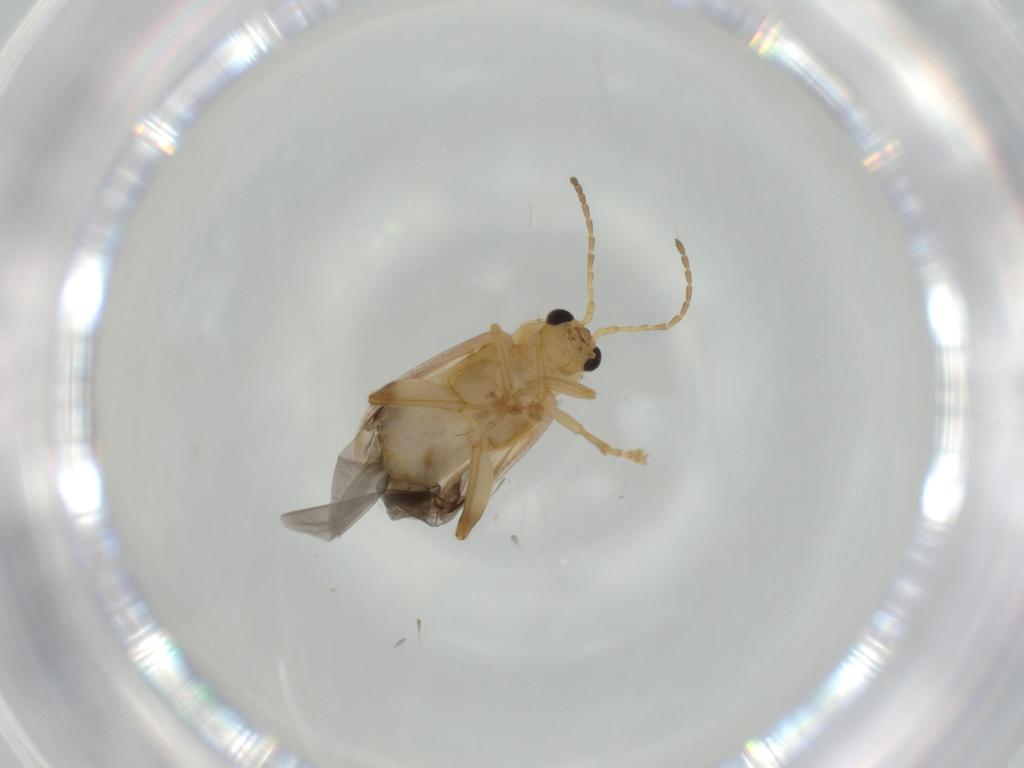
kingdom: Animalia
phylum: Arthropoda
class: Insecta
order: Coleoptera
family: Chrysomelidae
